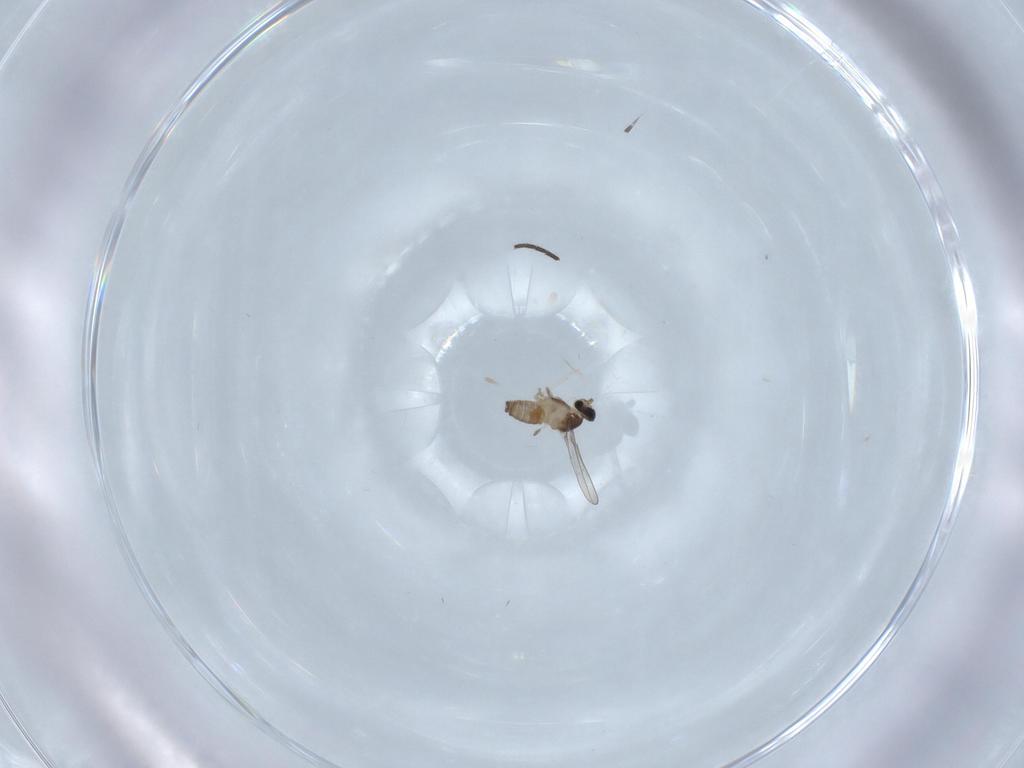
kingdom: Animalia
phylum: Arthropoda
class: Insecta
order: Diptera
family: Cecidomyiidae
